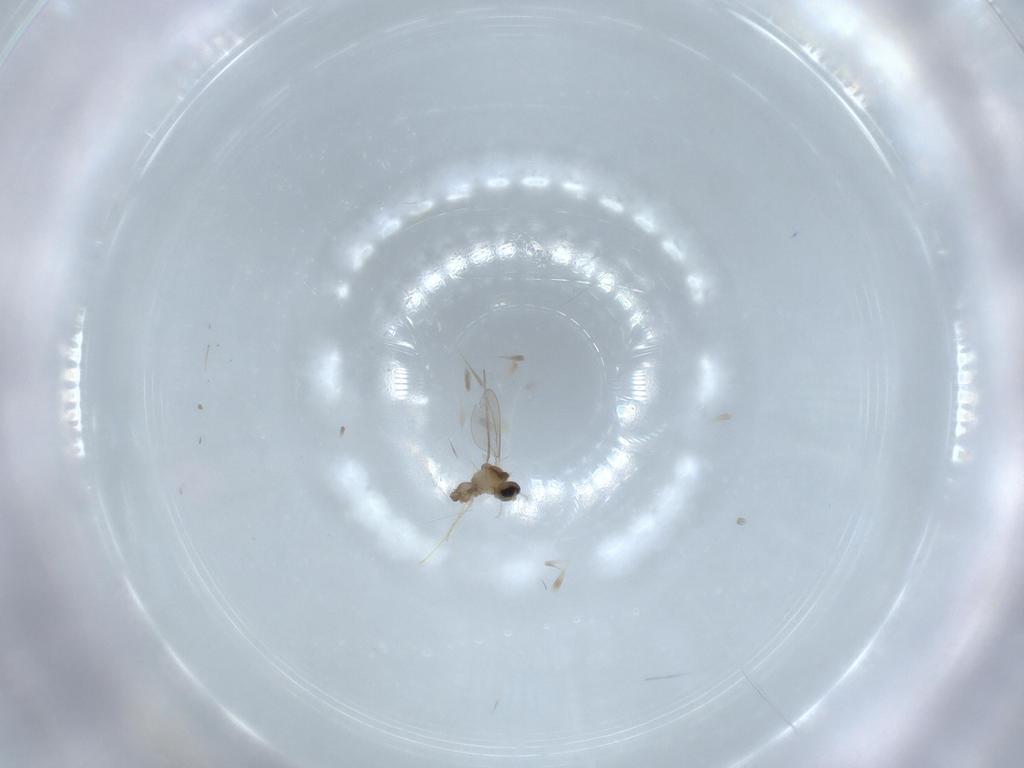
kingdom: Animalia
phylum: Arthropoda
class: Insecta
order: Diptera
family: Cecidomyiidae
